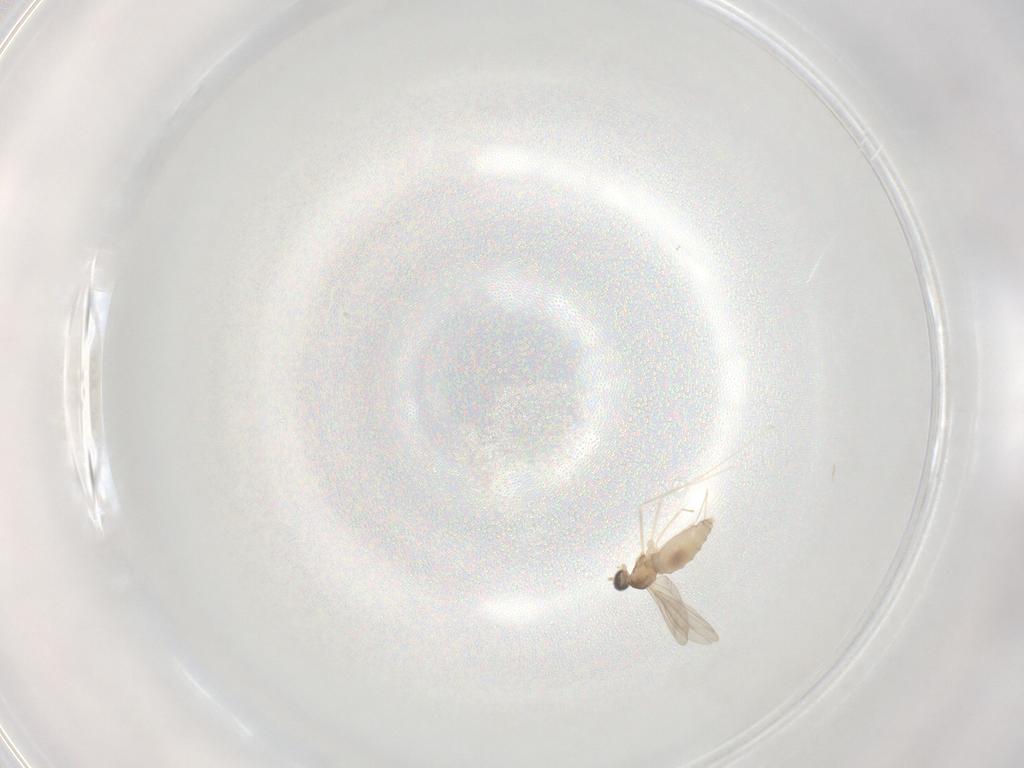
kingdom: Animalia
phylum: Arthropoda
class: Insecta
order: Diptera
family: Cecidomyiidae
